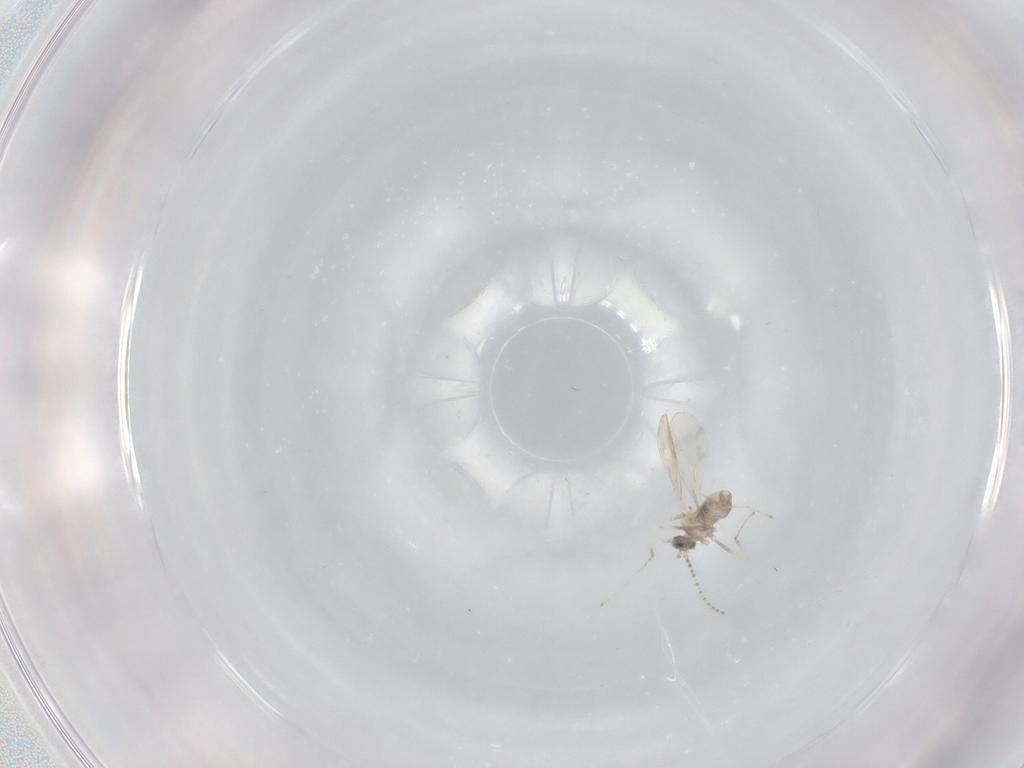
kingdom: Animalia
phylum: Arthropoda
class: Insecta
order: Diptera
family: Cecidomyiidae
